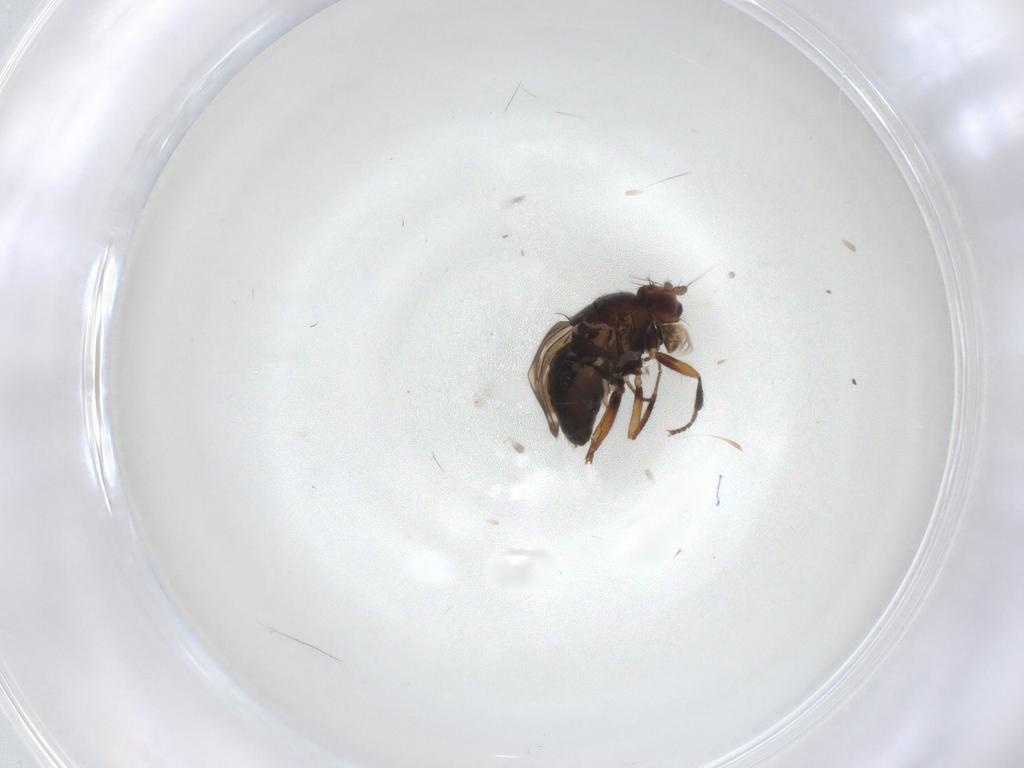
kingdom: Animalia
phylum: Arthropoda
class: Insecta
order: Diptera
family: Sphaeroceridae
